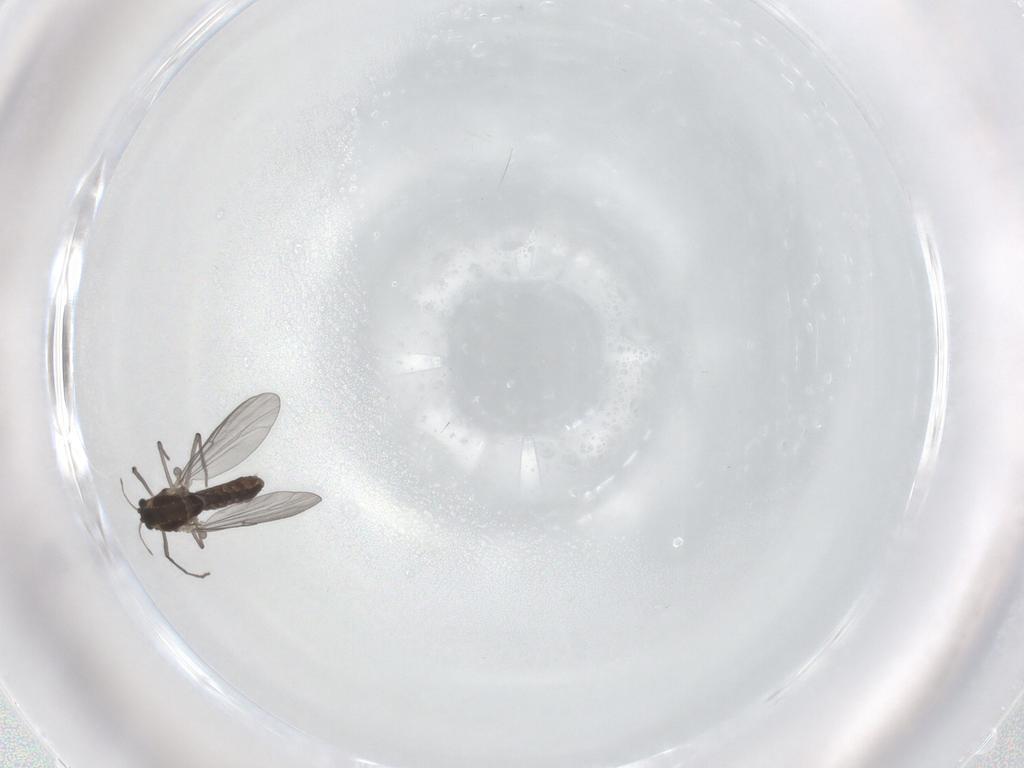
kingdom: Animalia
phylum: Arthropoda
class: Insecta
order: Diptera
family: Chironomidae
